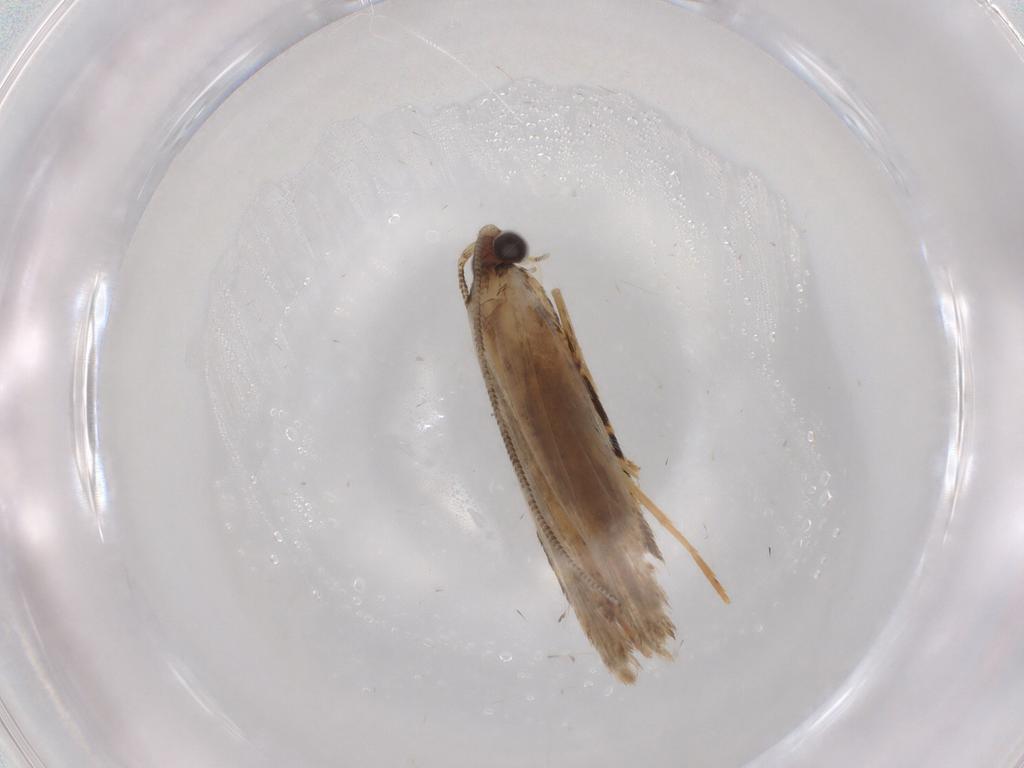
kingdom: Animalia
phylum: Arthropoda
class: Insecta
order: Lepidoptera
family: Tineidae
